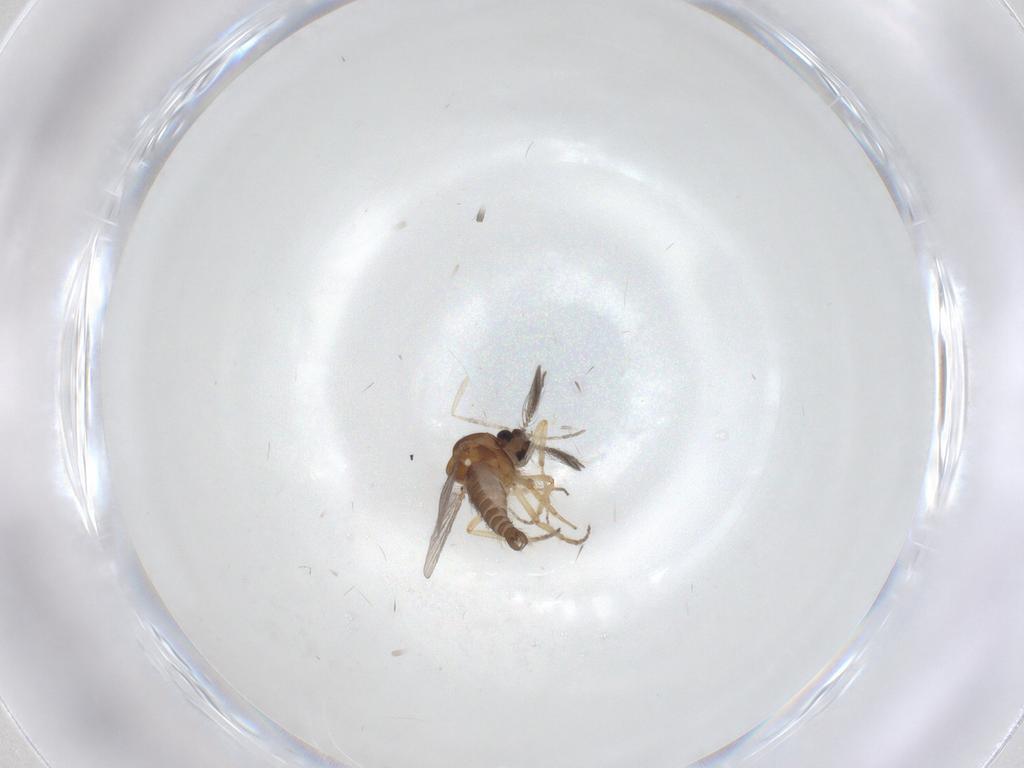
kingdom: Animalia
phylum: Arthropoda
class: Insecta
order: Diptera
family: Ceratopogonidae
